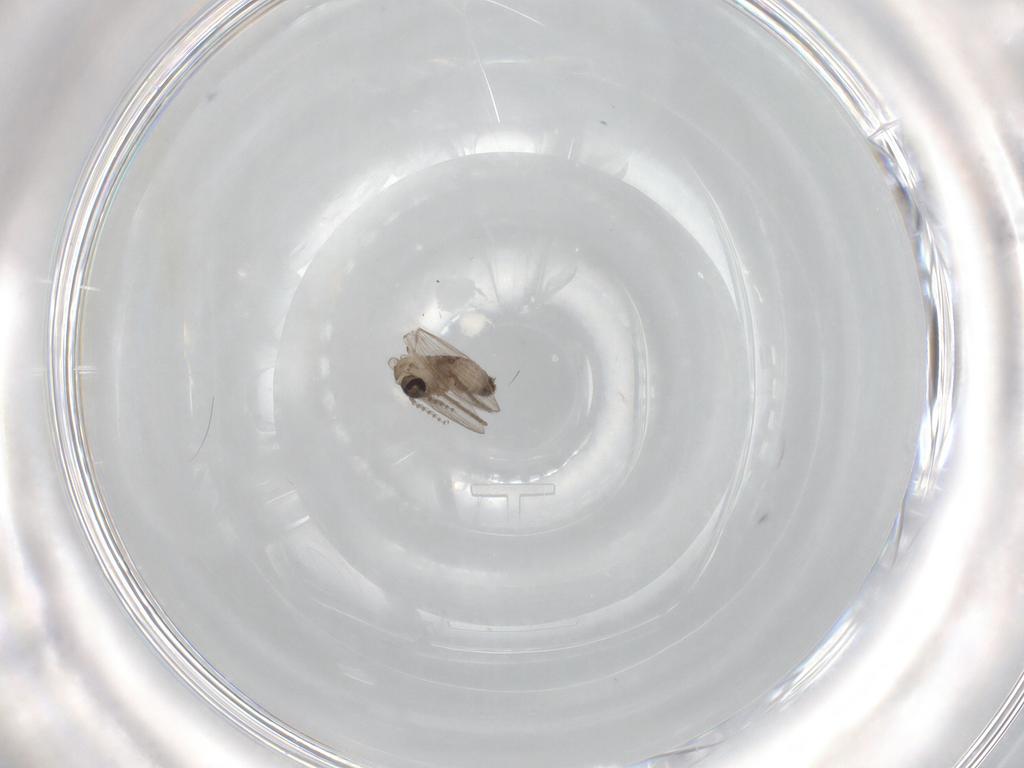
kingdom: Animalia
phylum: Arthropoda
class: Insecta
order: Diptera
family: Psychodidae
